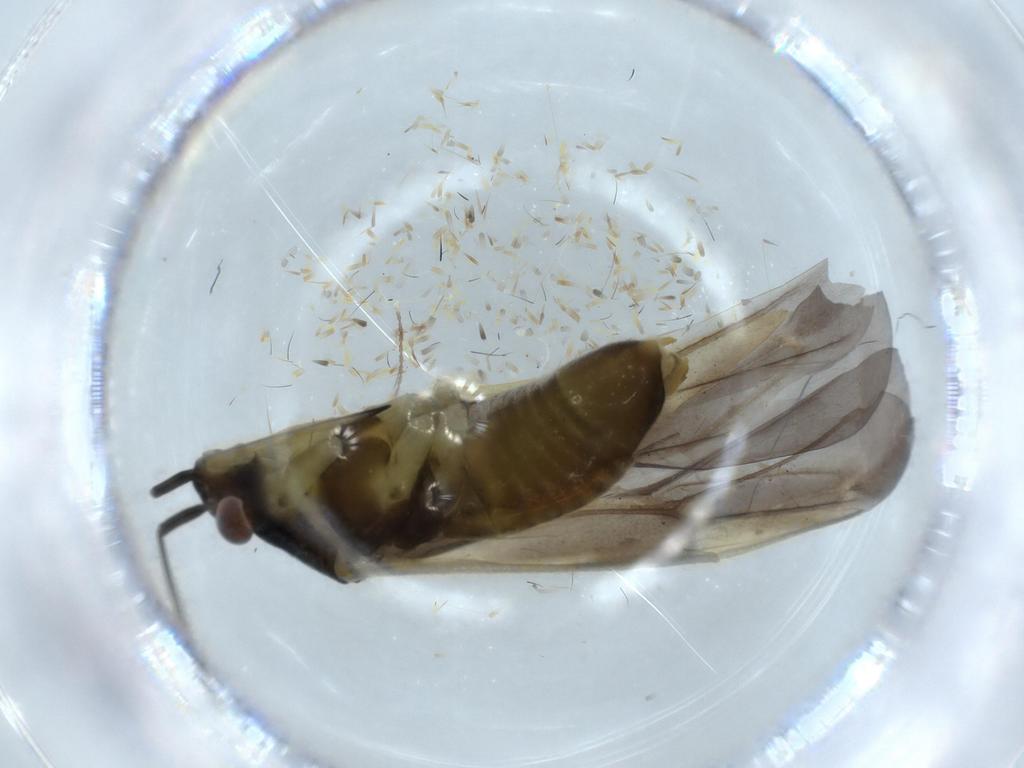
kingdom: Animalia
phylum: Arthropoda
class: Insecta
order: Hemiptera
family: Miridae
